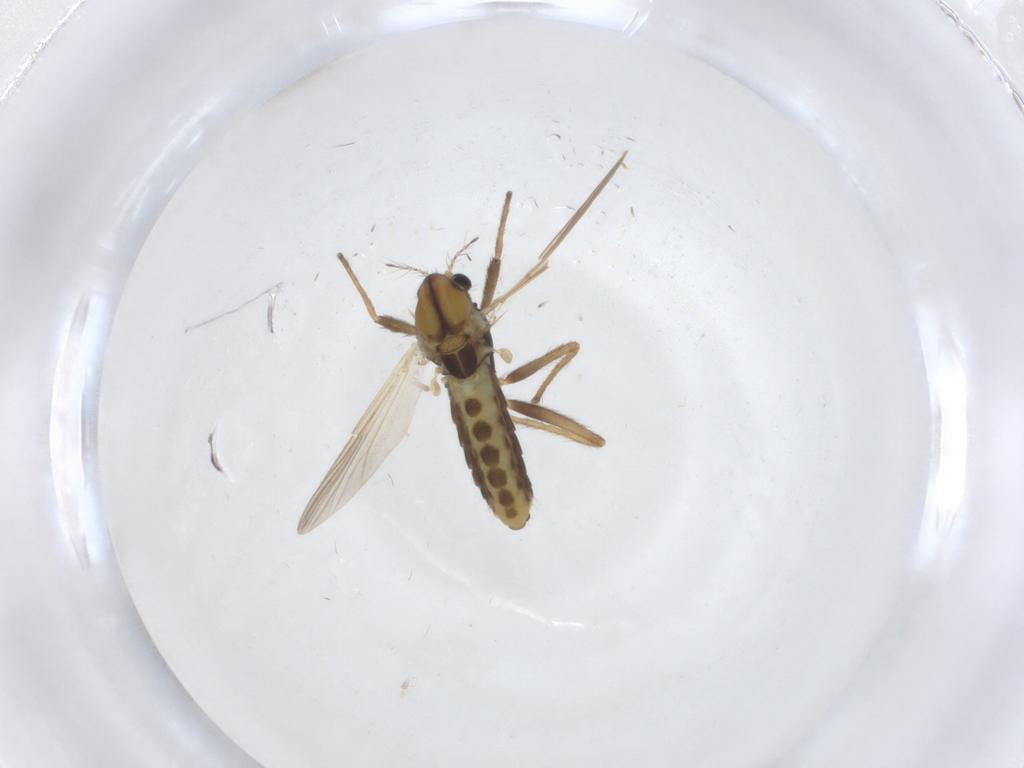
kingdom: Animalia
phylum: Arthropoda
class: Insecta
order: Diptera
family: Chironomidae
